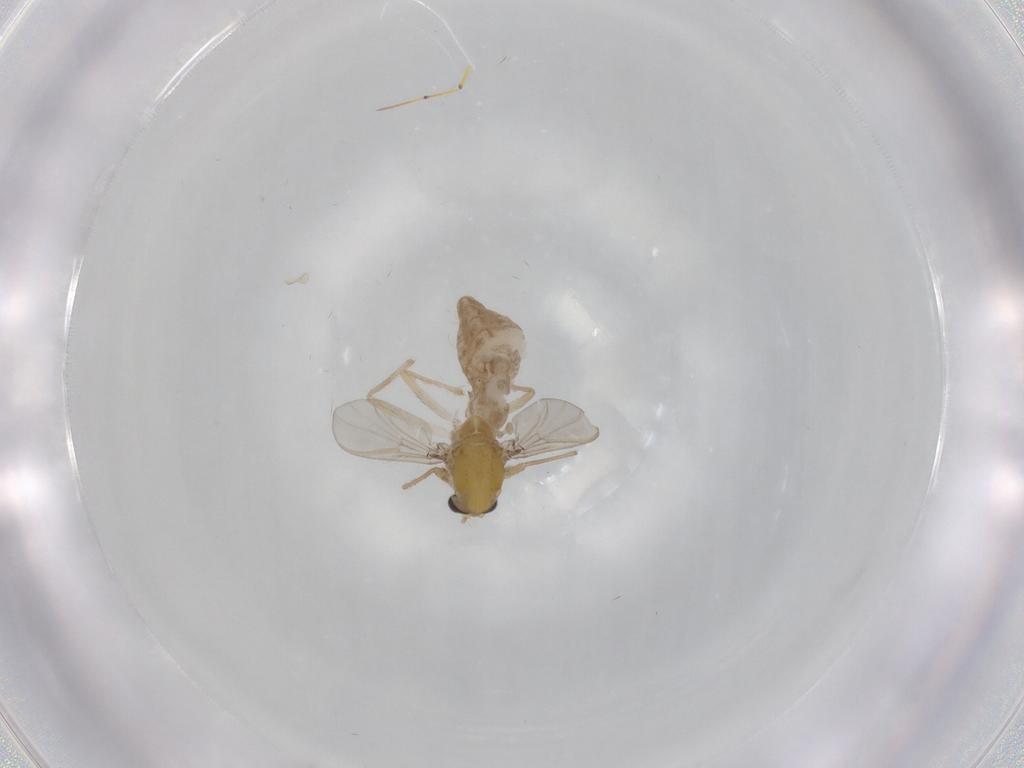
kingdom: Animalia
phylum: Arthropoda
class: Insecta
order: Diptera
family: Chironomidae
